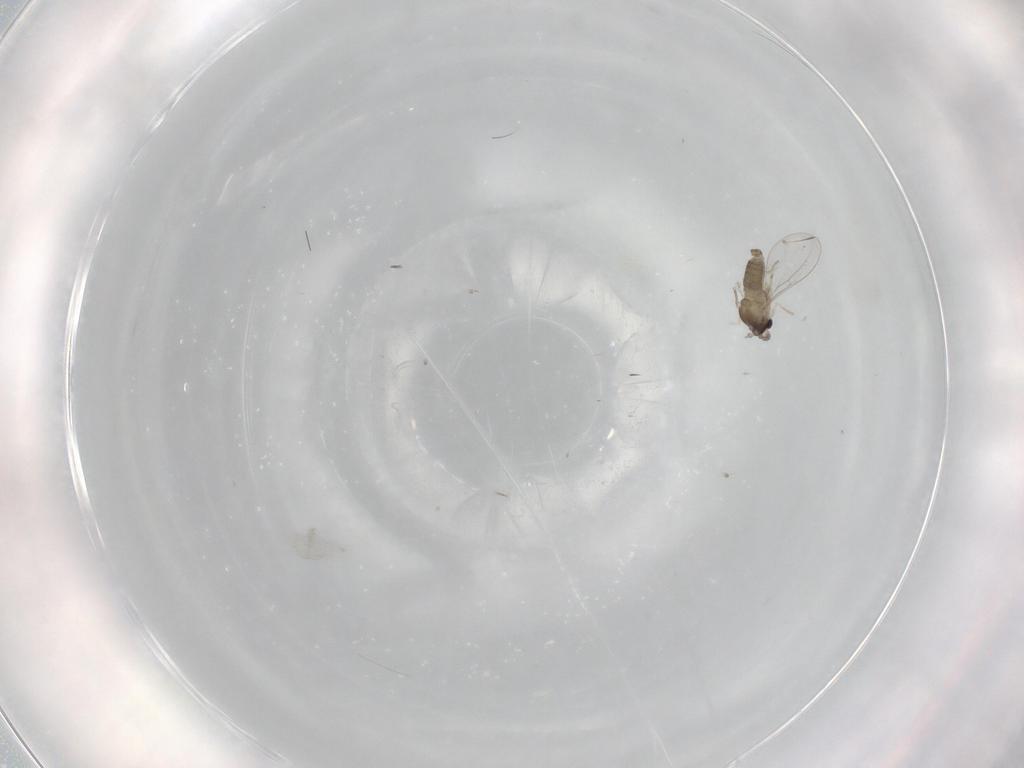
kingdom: Animalia
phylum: Arthropoda
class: Insecta
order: Diptera
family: Cecidomyiidae
